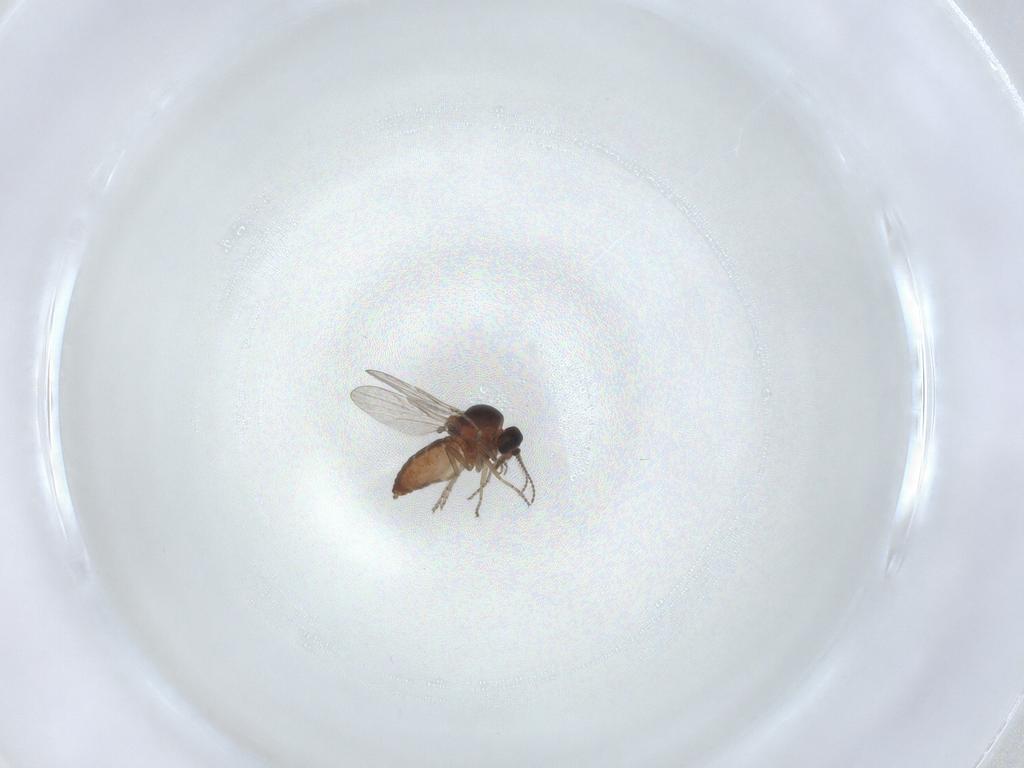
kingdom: Animalia
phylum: Arthropoda
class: Insecta
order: Diptera
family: Ceratopogonidae
